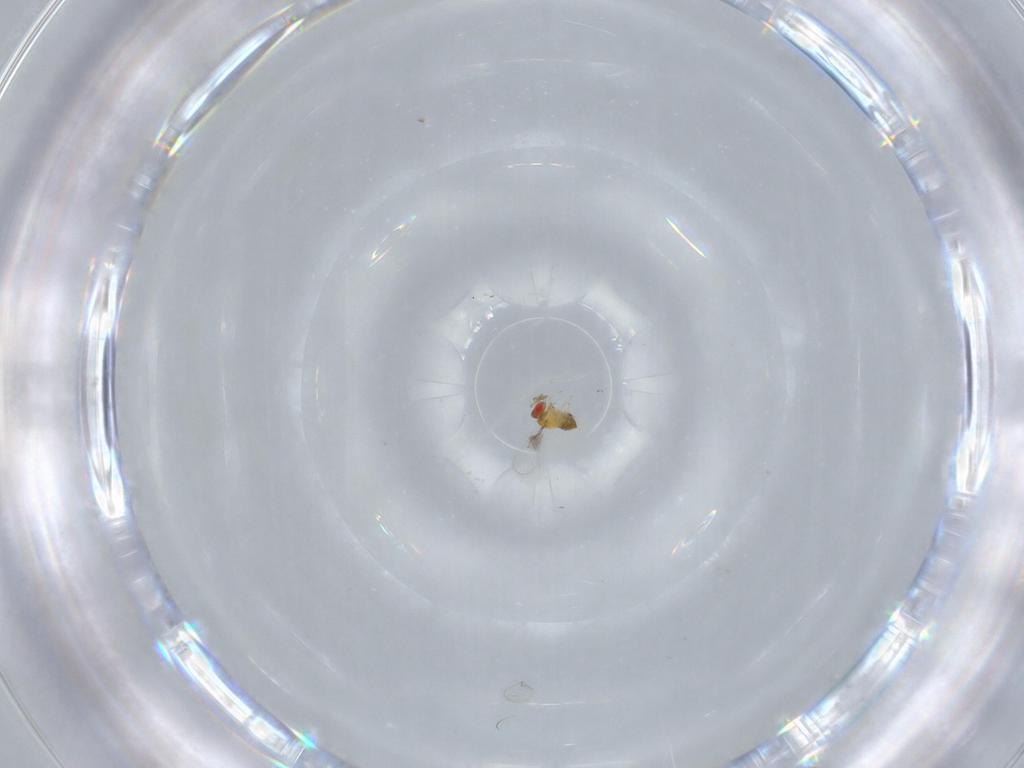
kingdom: Animalia
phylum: Arthropoda
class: Insecta
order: Hymenoptera
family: Trichogrammatidae
